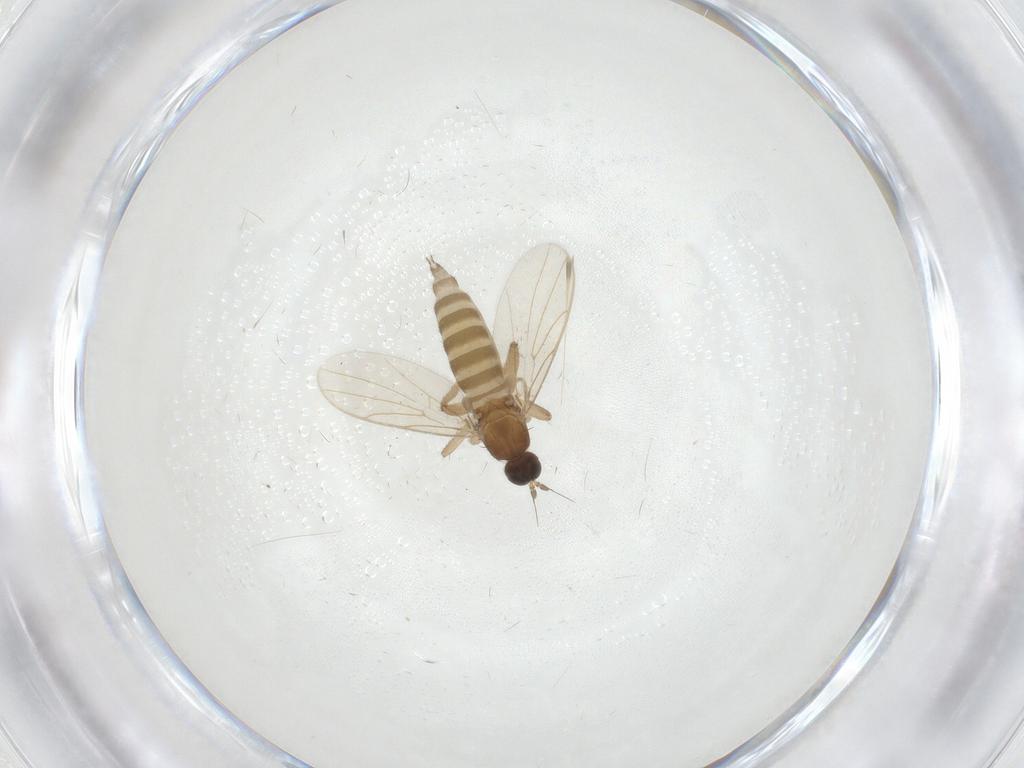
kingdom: Animalia
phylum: Arthropoda
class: Insecta
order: Diptera
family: Hybotidae
